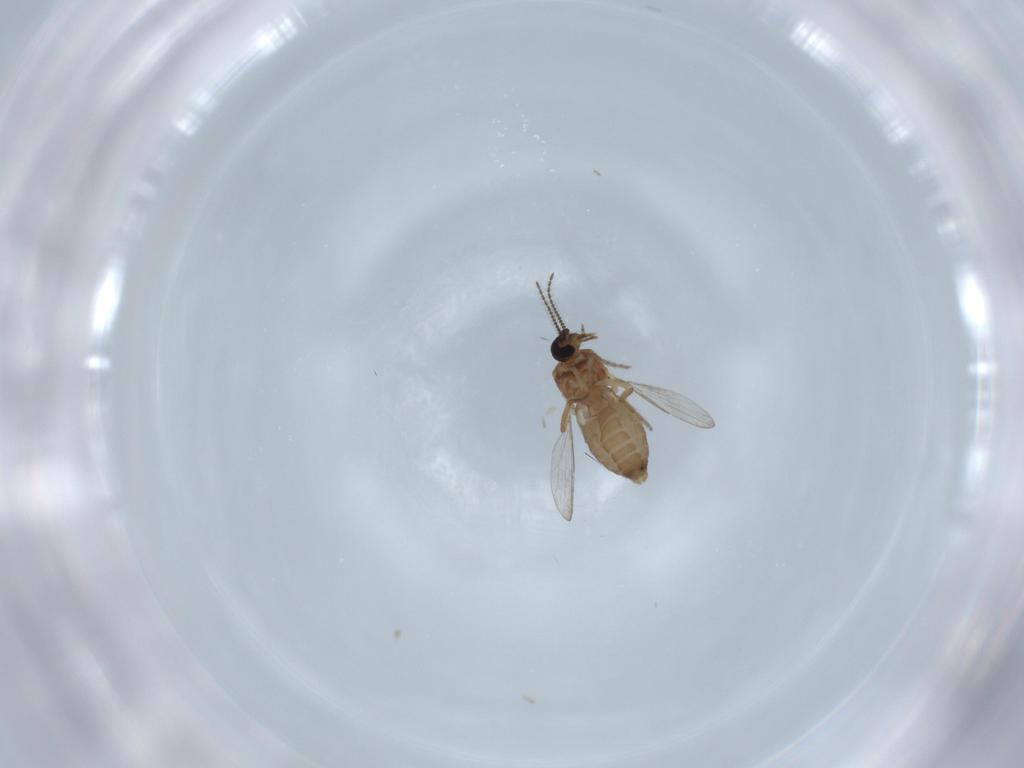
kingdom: Animalia
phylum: Arthropoda
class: Insecta
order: Diptera
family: Ceratopogonidae
